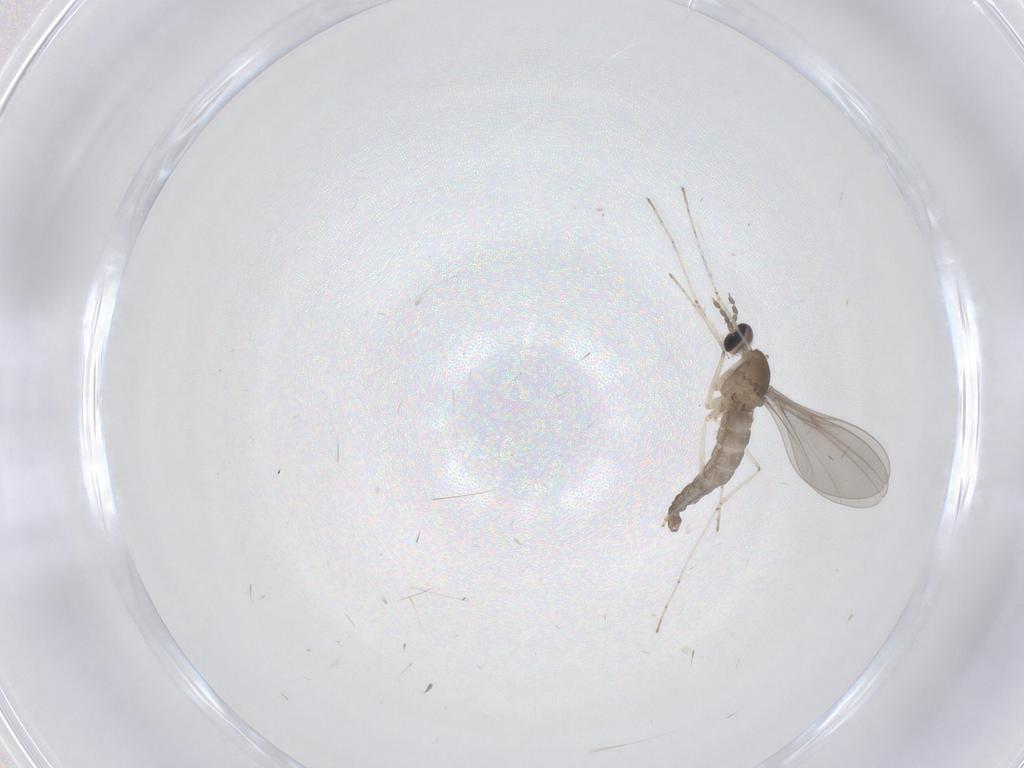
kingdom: Animalia
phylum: Arthropoda
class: Insecta
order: Diptera
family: Cecidomyiidae
